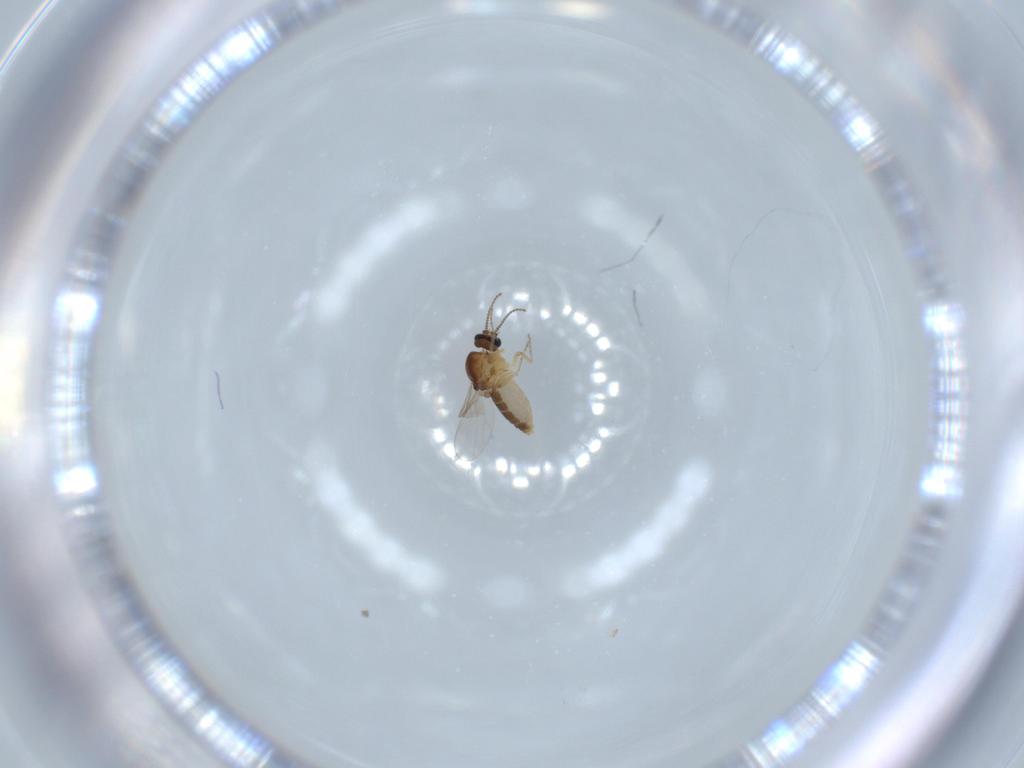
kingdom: Animalia
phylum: Arthropoda
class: Insecta
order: Diptera
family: Ceratopogonidae
